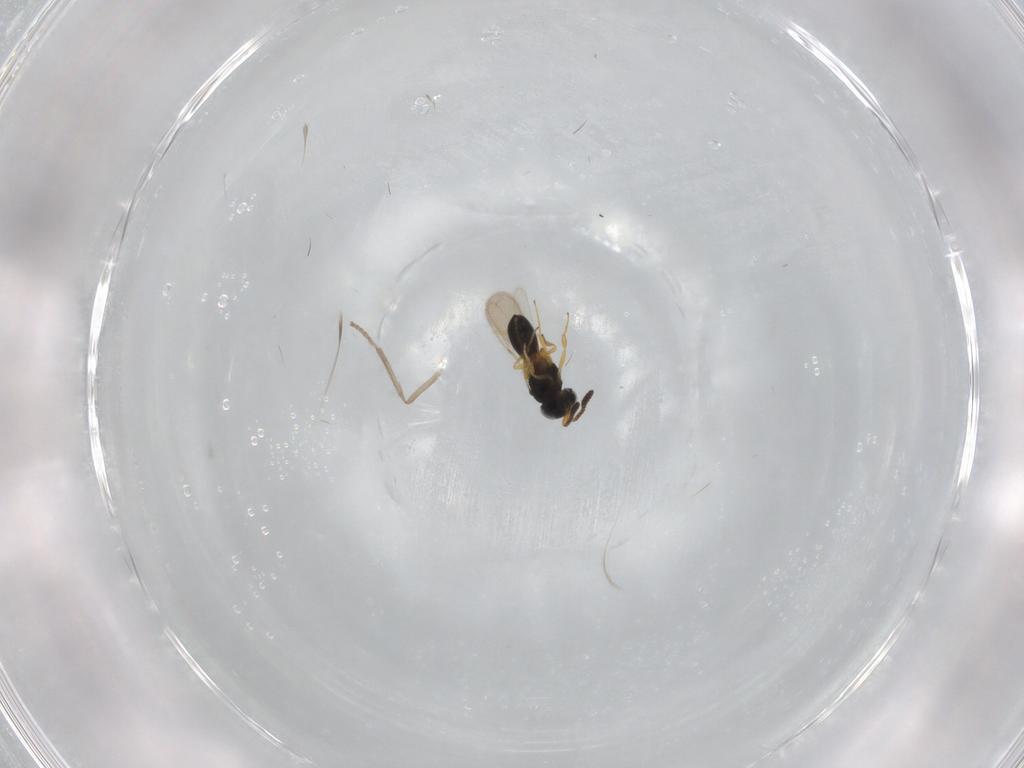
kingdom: Animalia
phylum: Arthropoda
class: Insecta
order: Hymenoptera
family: Scelionidae
